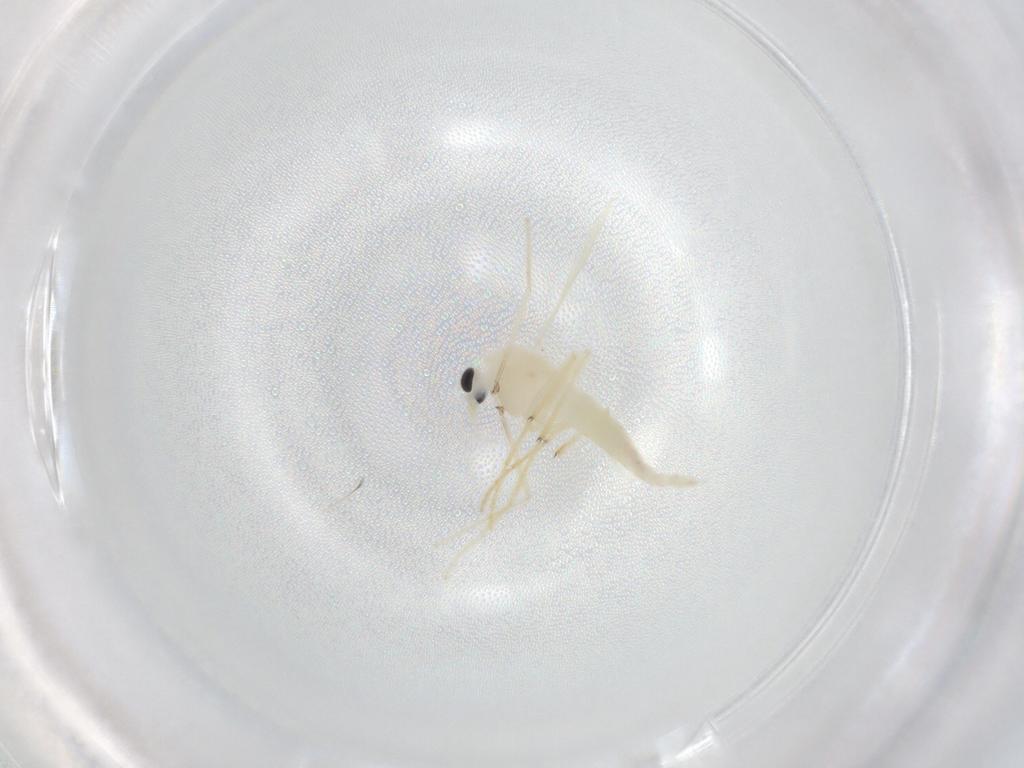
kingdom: Animalia
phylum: Arthropoda
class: Insecta
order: Diptera
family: Chironomidae
